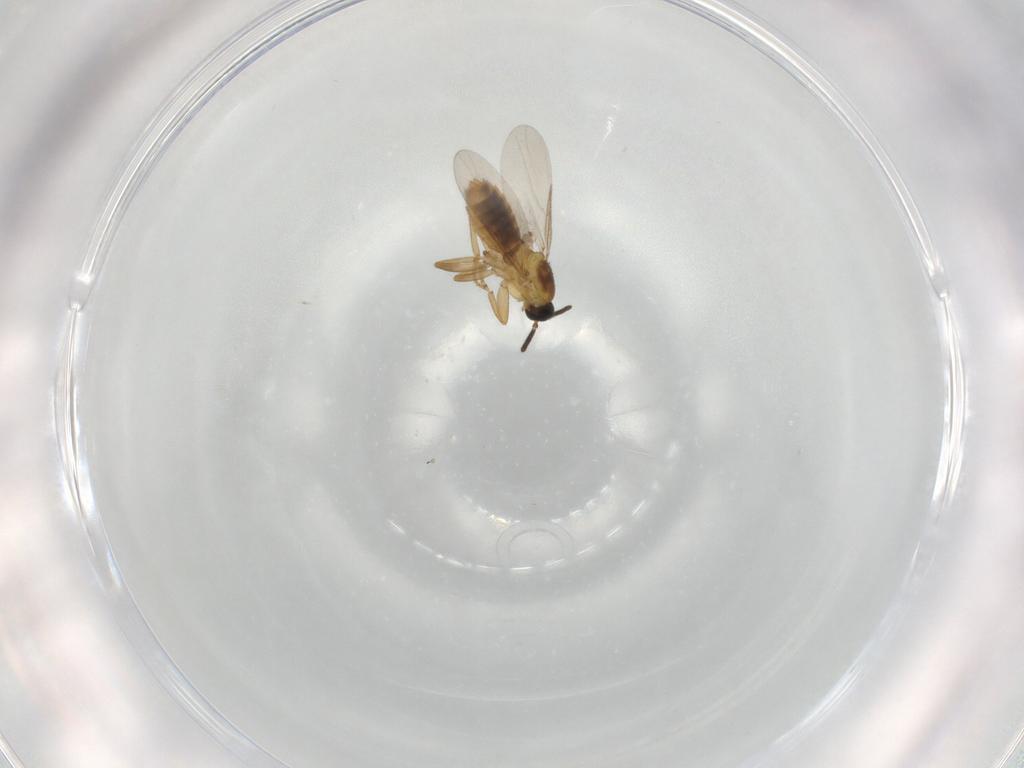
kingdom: Animalia
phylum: Arthropoda
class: Insecta
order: Diptera
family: Scatopsidae
